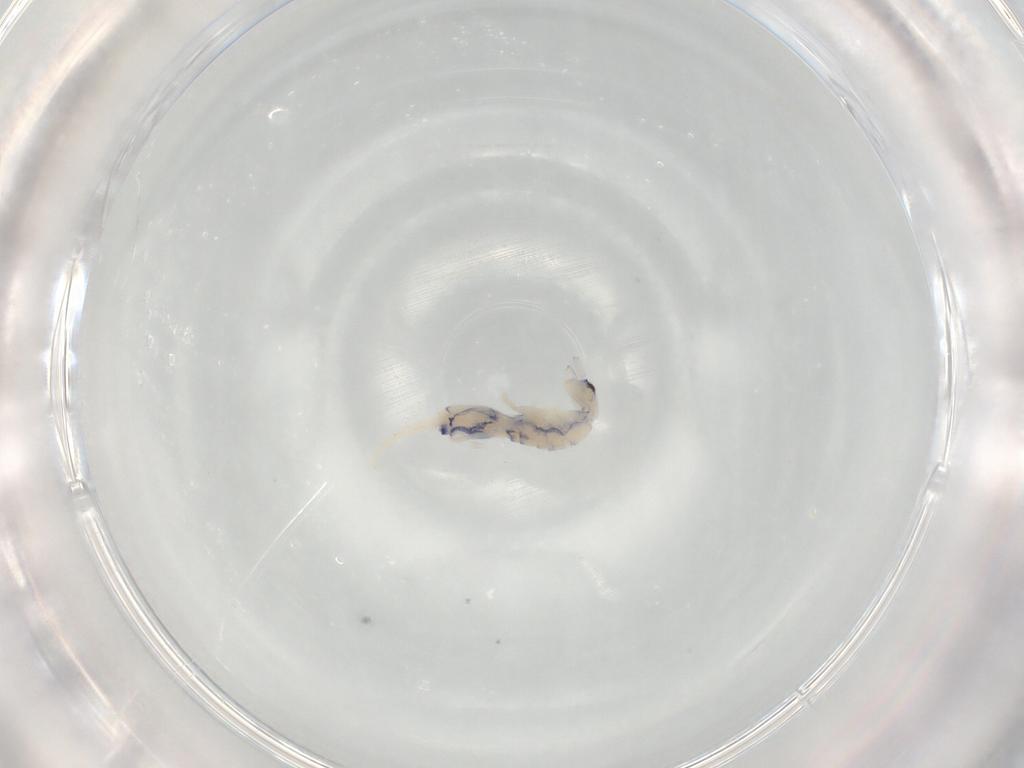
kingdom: Animalia
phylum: Arthropoda
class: Collembola
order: Entomobryomorpha
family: Entomobryidae
